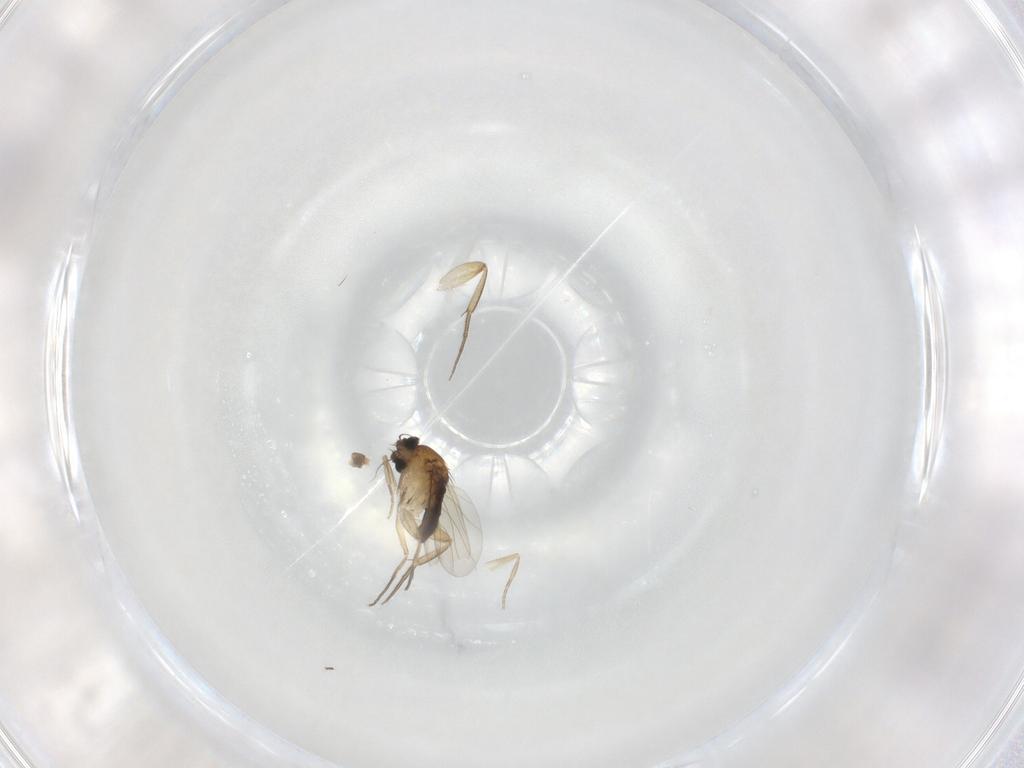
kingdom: Animalia
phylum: Arthropoda
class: Insecta
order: Diptera
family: Phoridae
